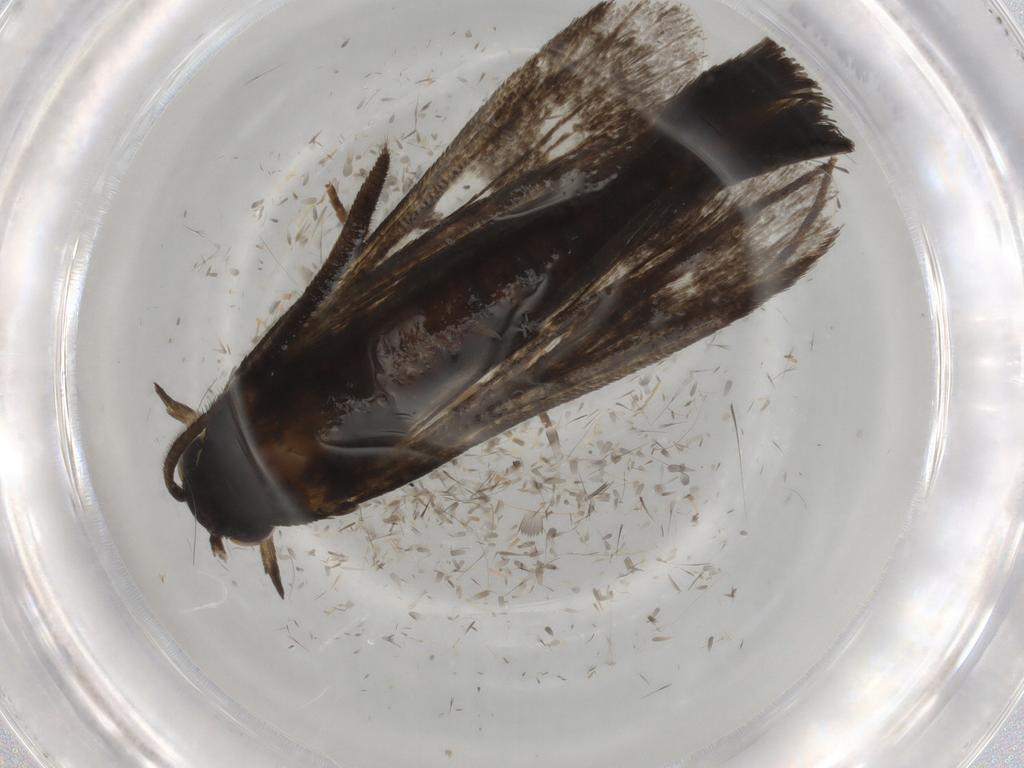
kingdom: Animalia
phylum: Arthropoda
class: Insecta
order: Lepidoptera
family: Sesiidae
